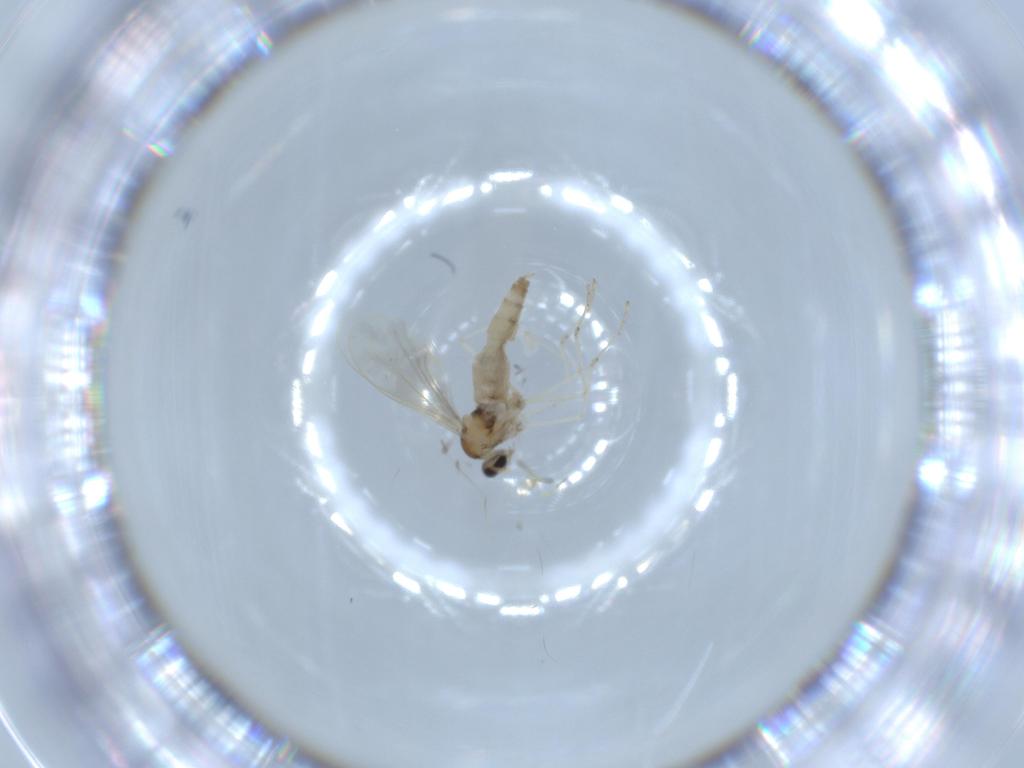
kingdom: Animalia
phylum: Arthropoda
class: Insecta
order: Diptera
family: Cecidomyiidae
